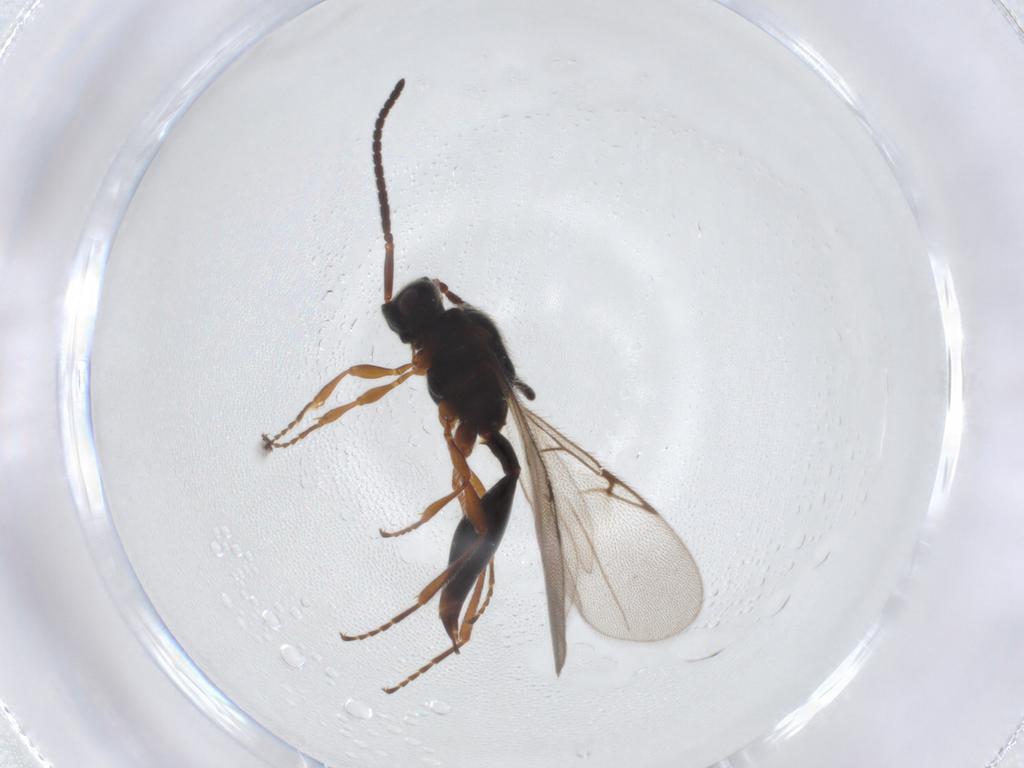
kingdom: Animalia
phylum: Arthropoda
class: Insecta
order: Hymenoptera
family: Diapriidae
